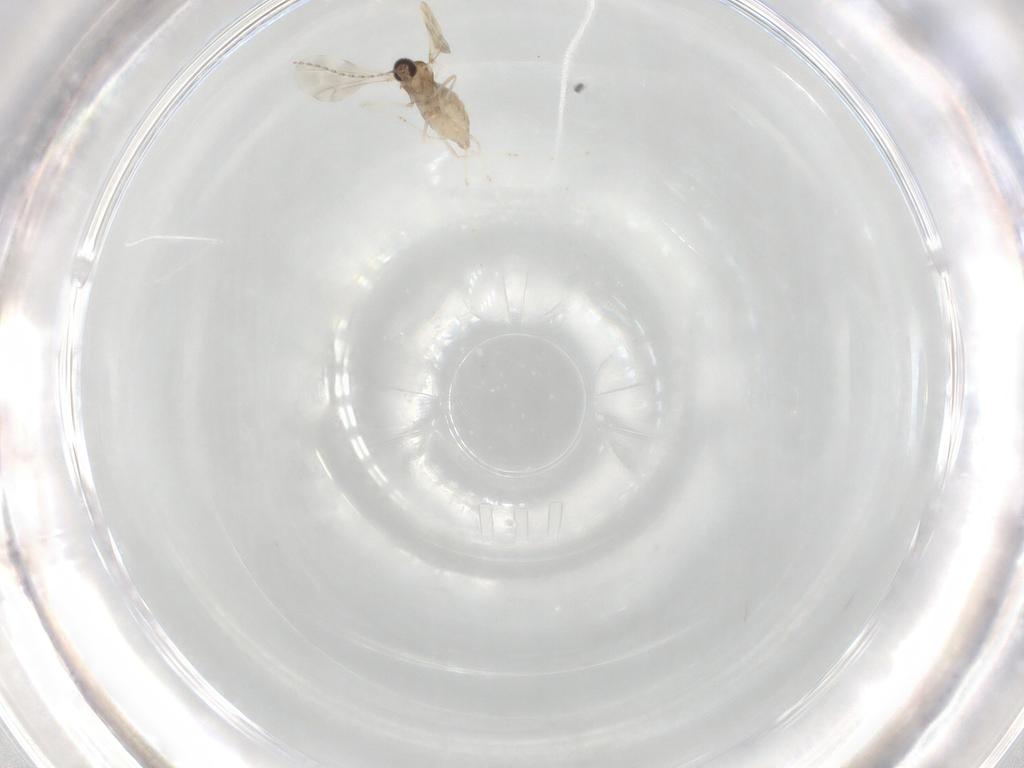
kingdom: Animalia
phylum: Arthropoda
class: Insecta
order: Diptera
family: Cecidomyiidae
